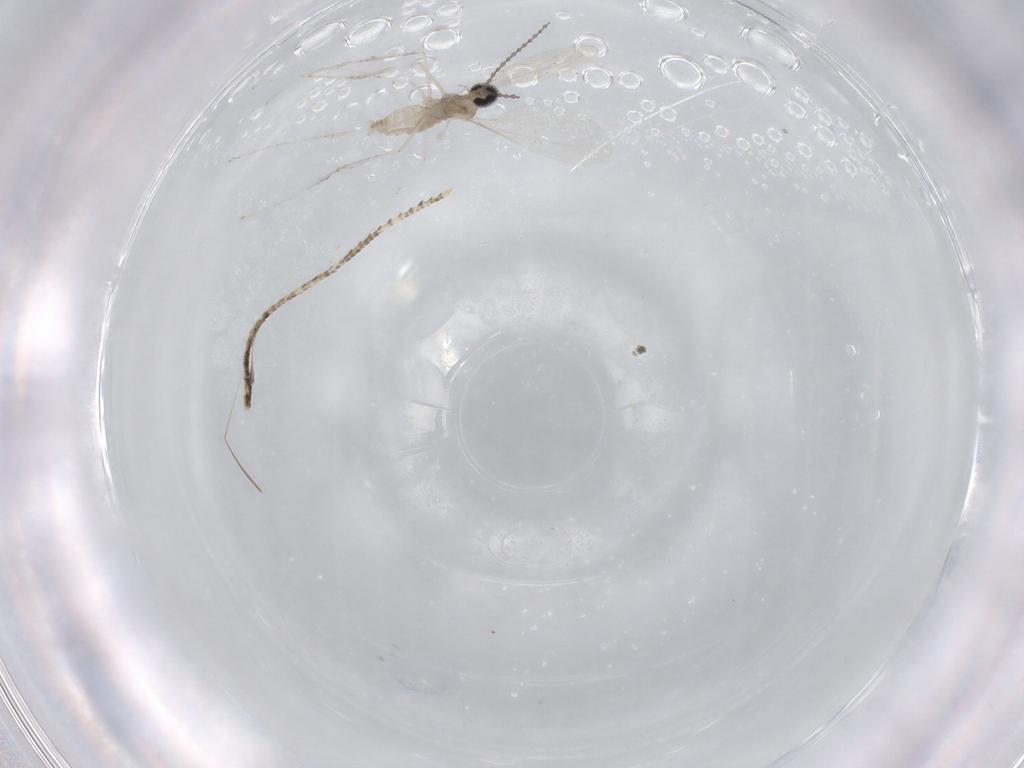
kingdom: Animalia
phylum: Arthropoda
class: Insecta
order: Diptera
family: Cecidomyiidae
